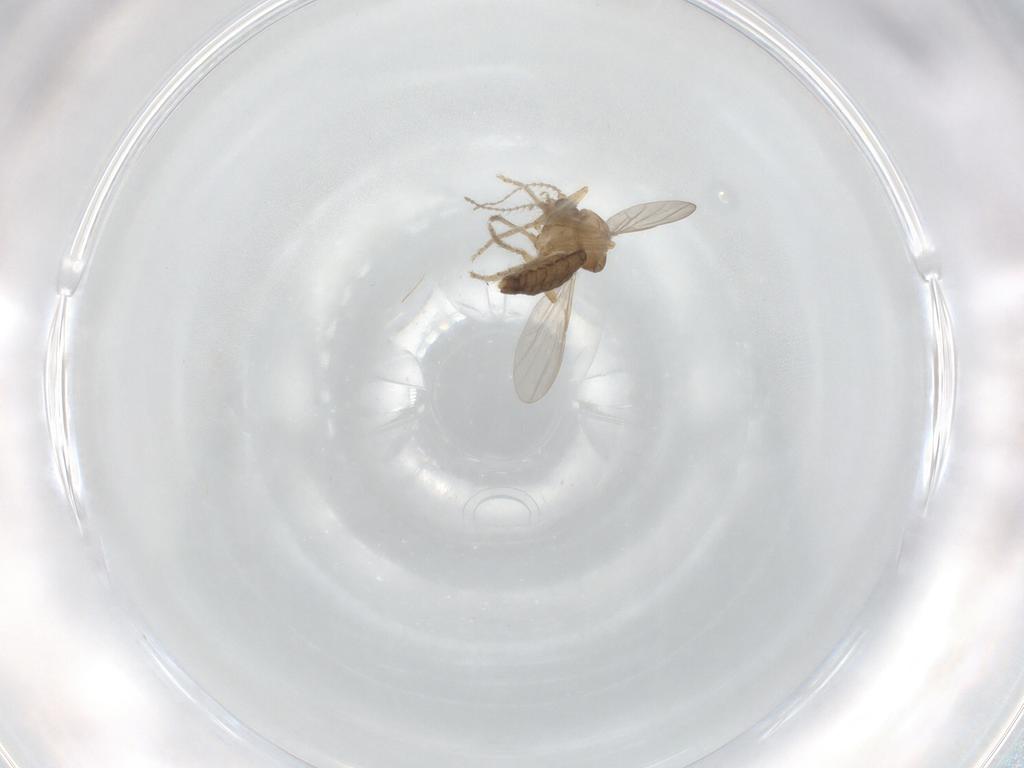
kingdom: Animalia
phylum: Arthropoda
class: Insecta
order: Diptera
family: Ceratopogonidae
